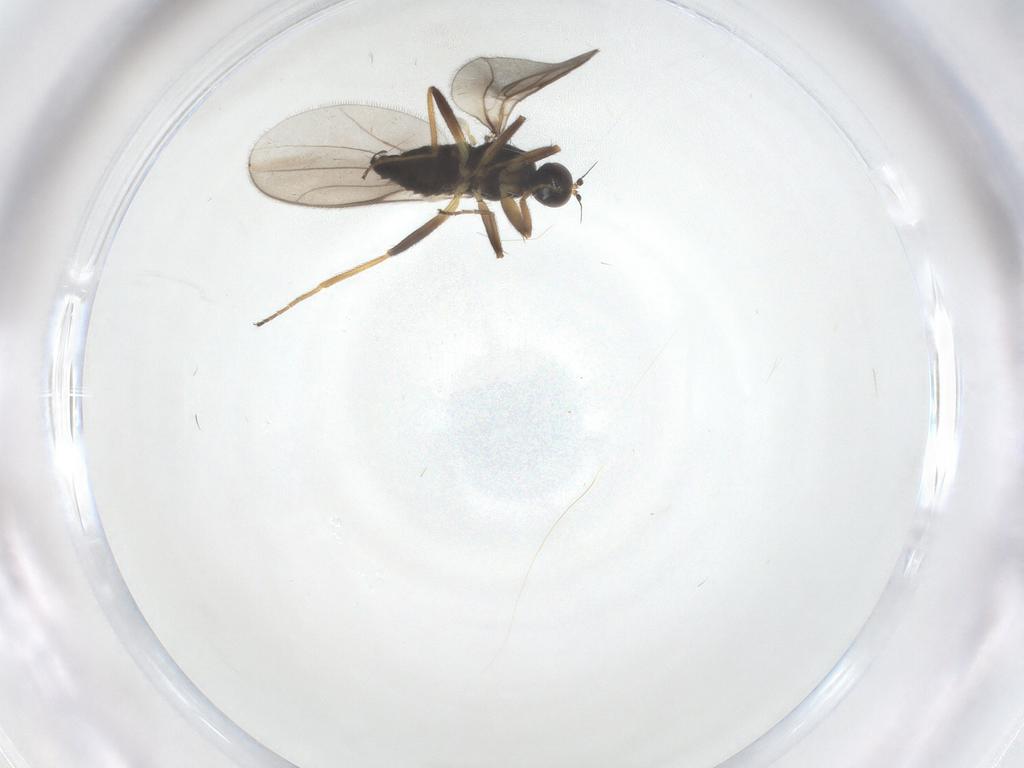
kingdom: Animalia
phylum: Arthropoda
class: Insecta
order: Diptera
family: Hybotidae
